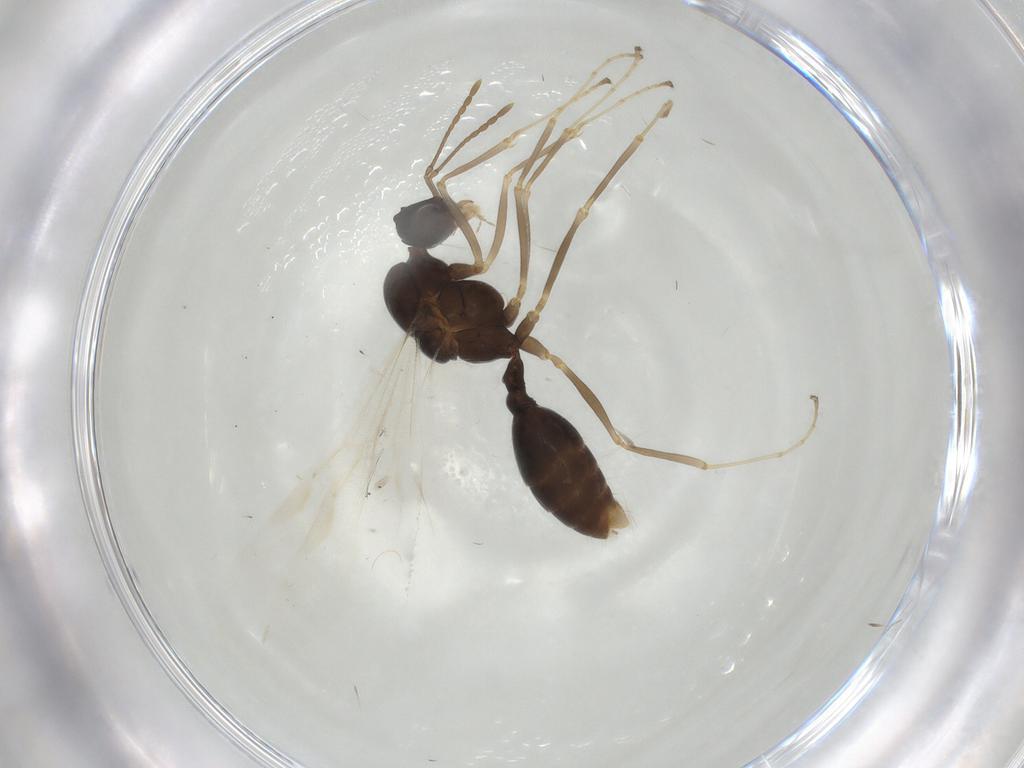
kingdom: Animalia
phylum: Arthropoda
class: Insecta
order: Hymenoptera
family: Formicidae
